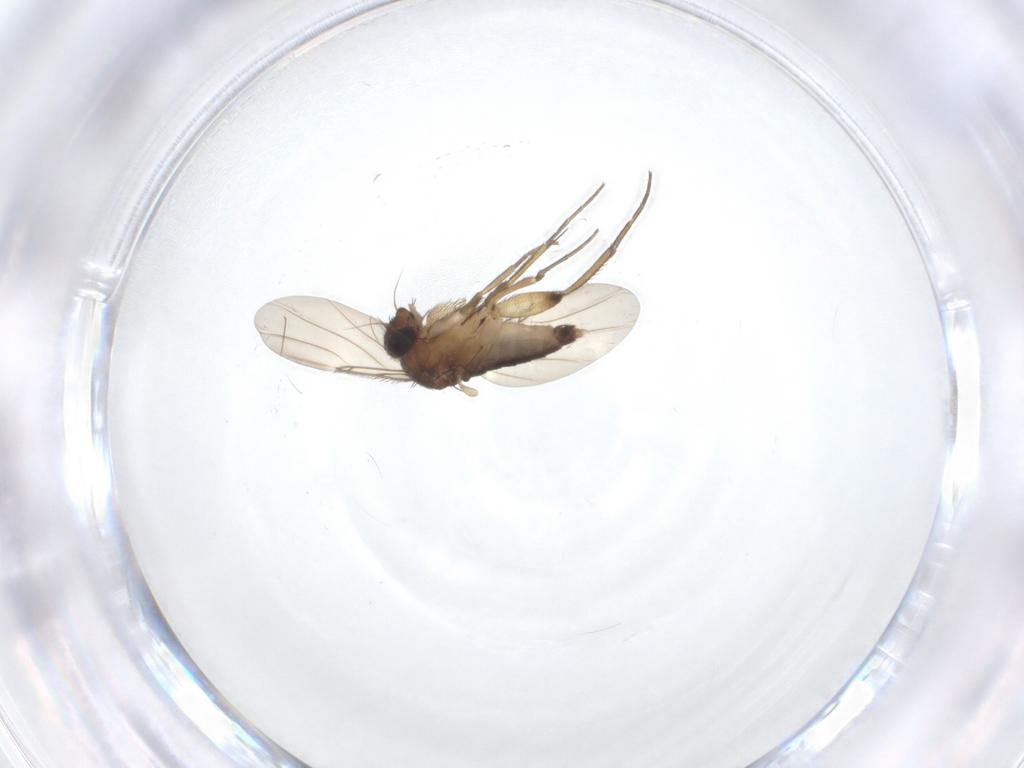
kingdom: Animalia
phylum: Arthropoda
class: Insecta
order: Diptera
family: Phoridae
